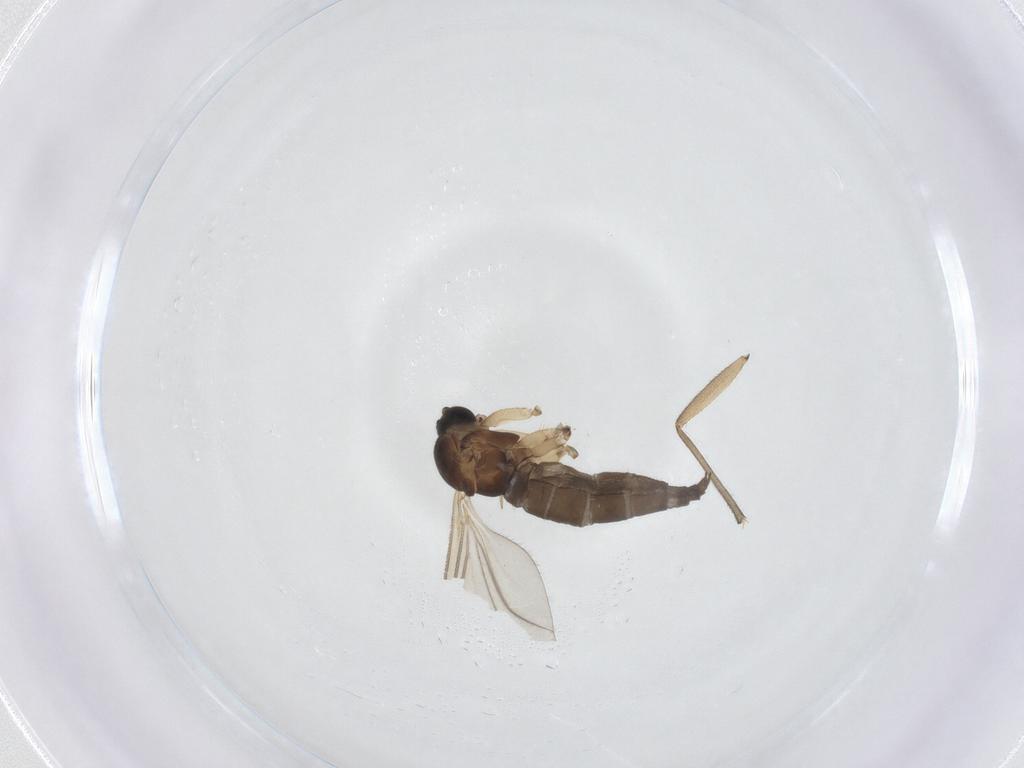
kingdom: Animalia
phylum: Arthropoda
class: Insecta
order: Diptera
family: Sciaridae
